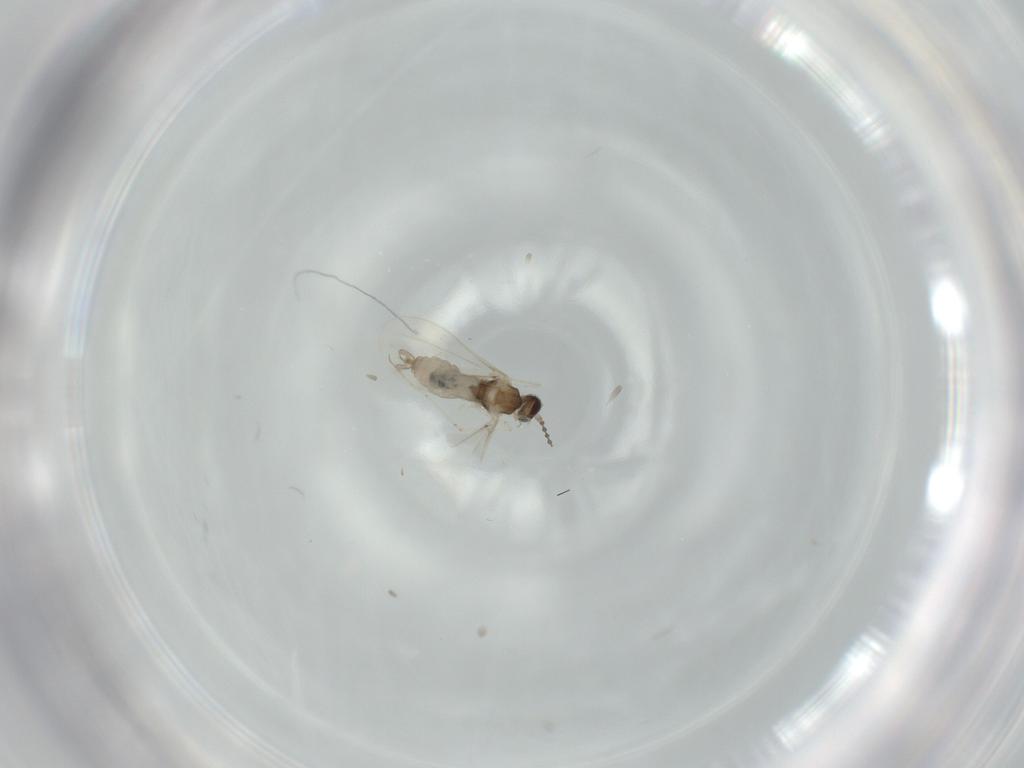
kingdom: Animalia
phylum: Arthropoda
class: Insecta
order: Diptera
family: Cecidomyiidae
